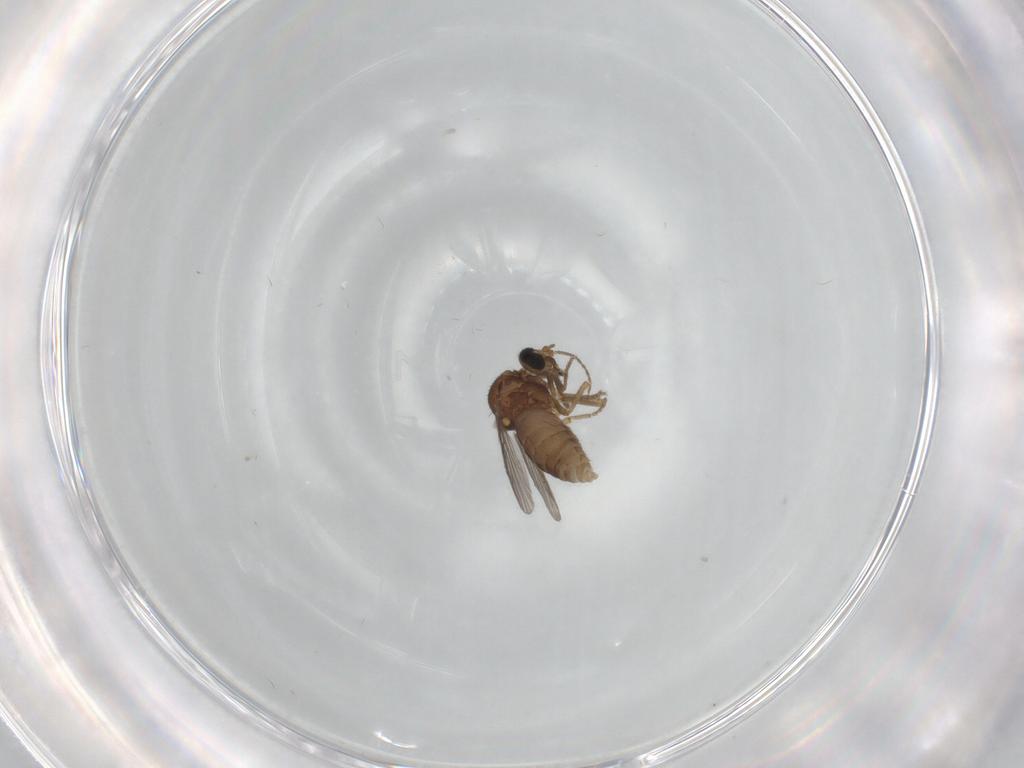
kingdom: Animalia
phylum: Arthropoda
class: Insecta
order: Diptera
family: Ceratopogonidae
